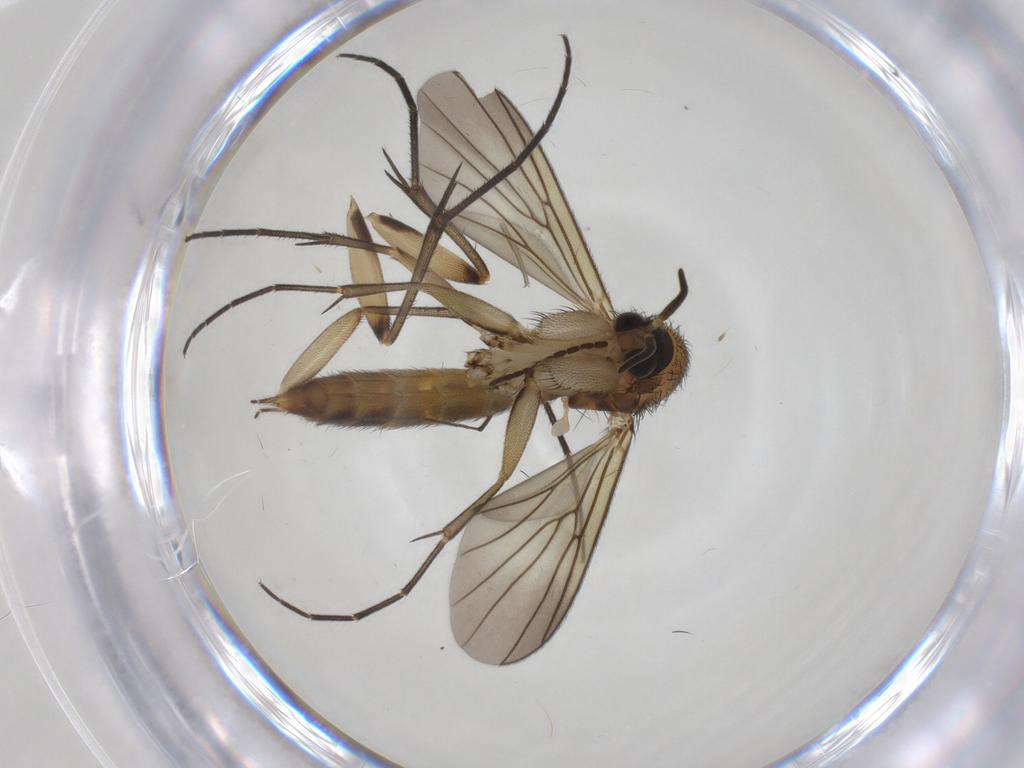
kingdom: Animalia
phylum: Arthropoda
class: Insecta
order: Diptera
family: Chironomidae
